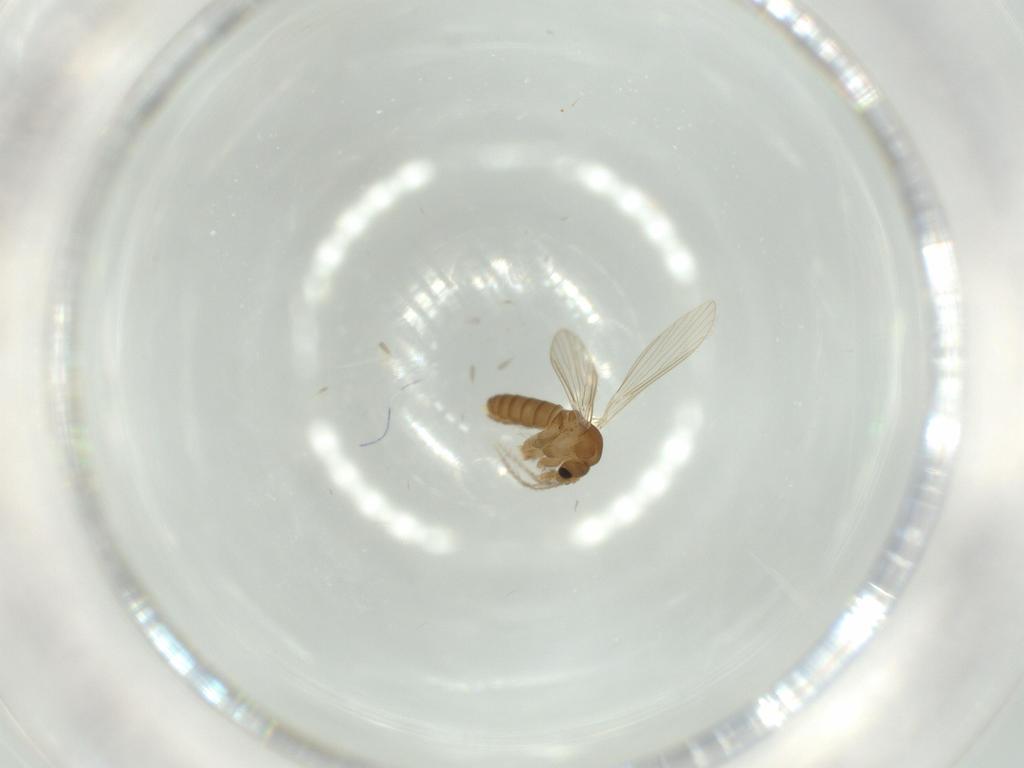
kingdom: Animalia
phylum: Arthropoda
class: Insecta
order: Diptera
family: Psychodidae
